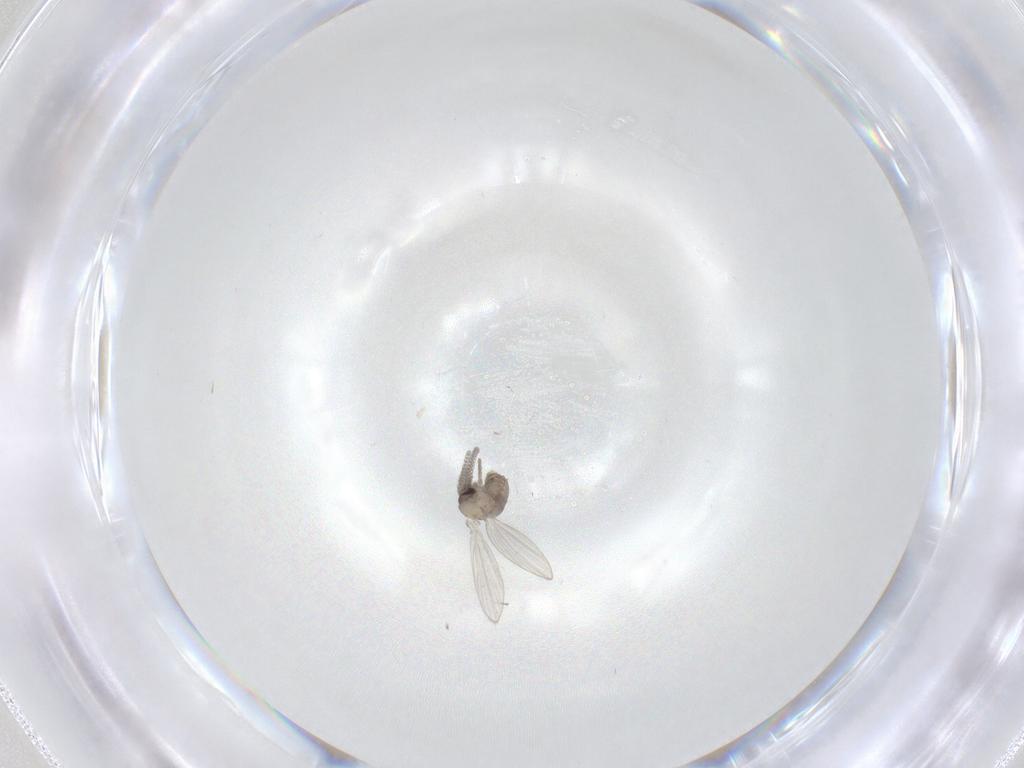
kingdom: Animalia
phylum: Arthropoda
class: Insecta
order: Diptera
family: Psychodidae
